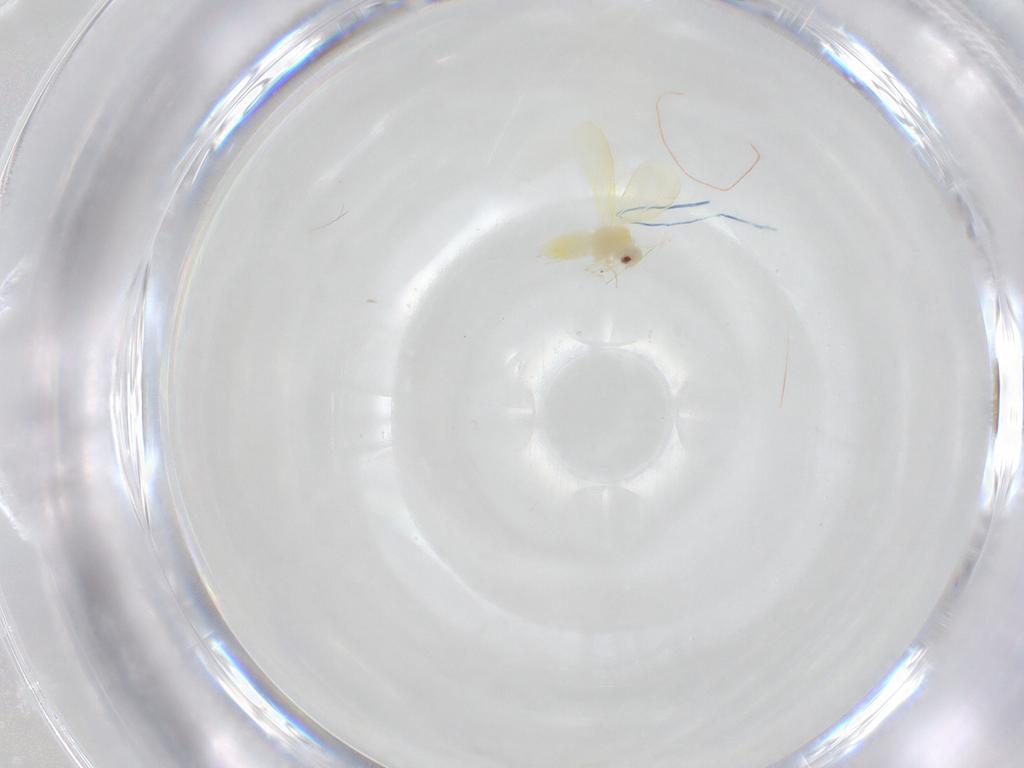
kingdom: Animalia
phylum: Arthropoda
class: Insecta
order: Hemiptera
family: Aleyrodidae
